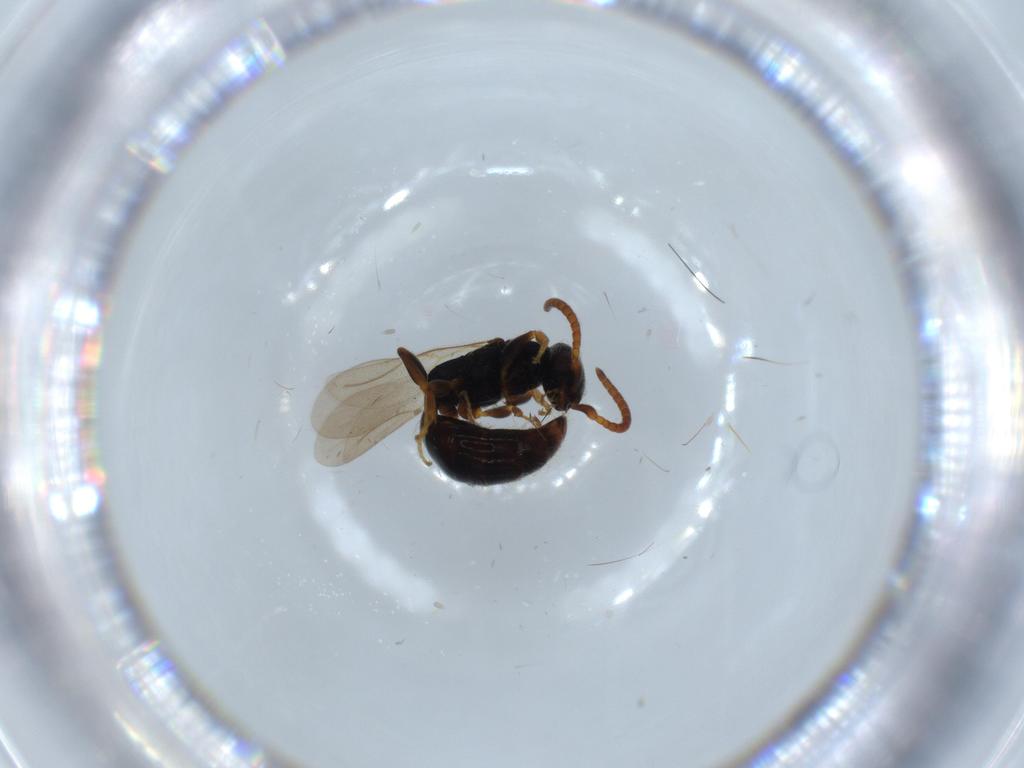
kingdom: Animalia
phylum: Arthropoda
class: Insecta
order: Hymenoptera
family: Bethylidae
